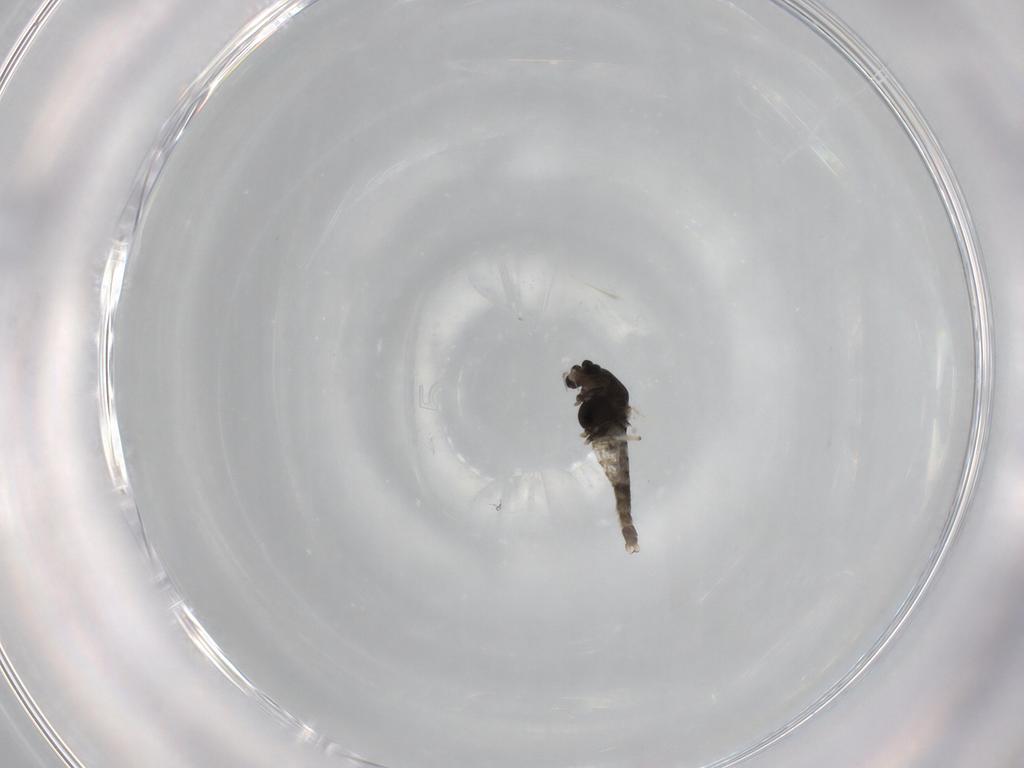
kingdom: Animalia
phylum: Arthropoda
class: Insecta
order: Diptera
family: Chironomidae
